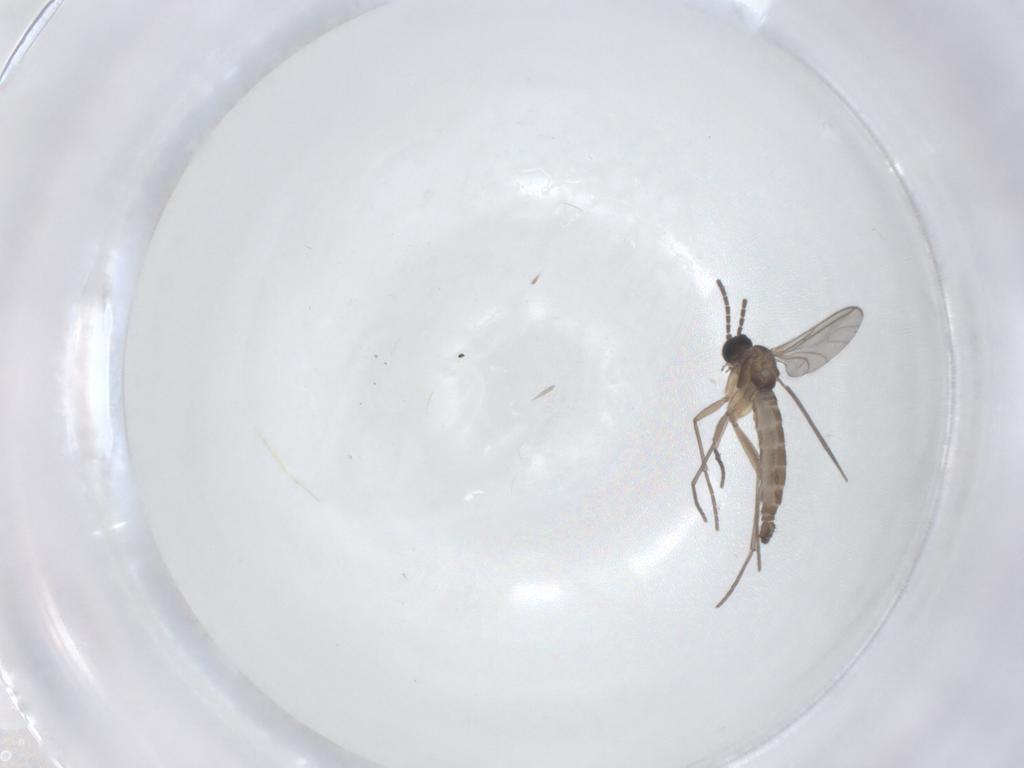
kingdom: Animalia
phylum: Arthropoda
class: Insecta
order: Diptera
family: Sciaridae
